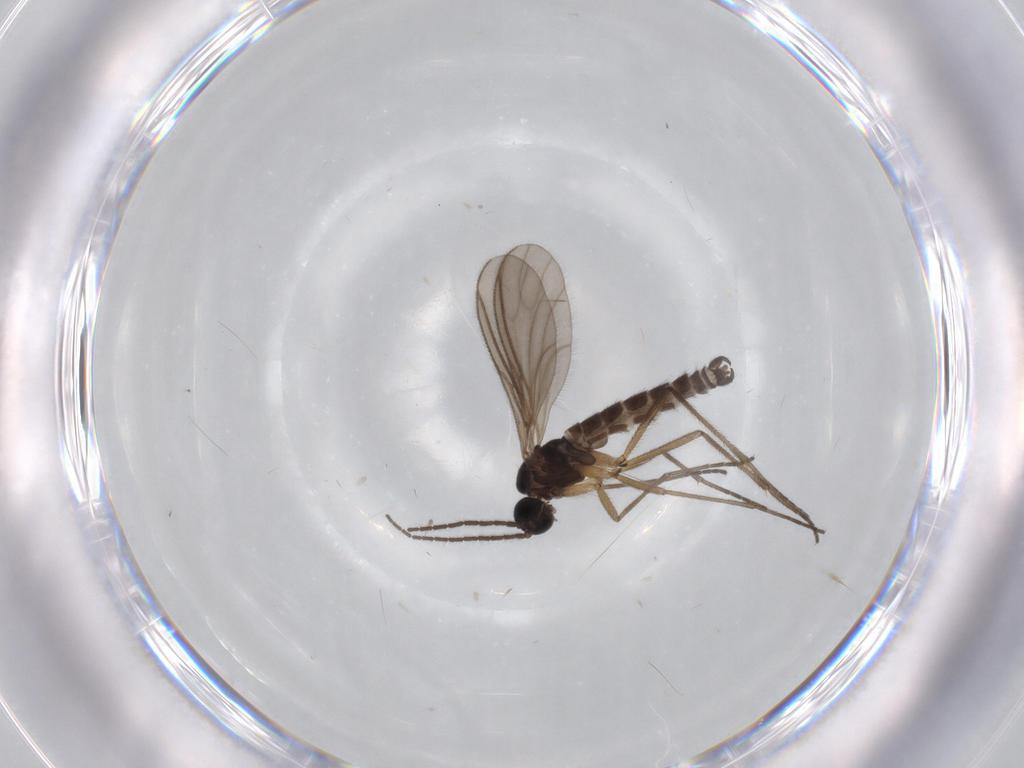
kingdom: Animalia
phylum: Arthropoda
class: Insecta
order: Diptera
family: Sciaridae
